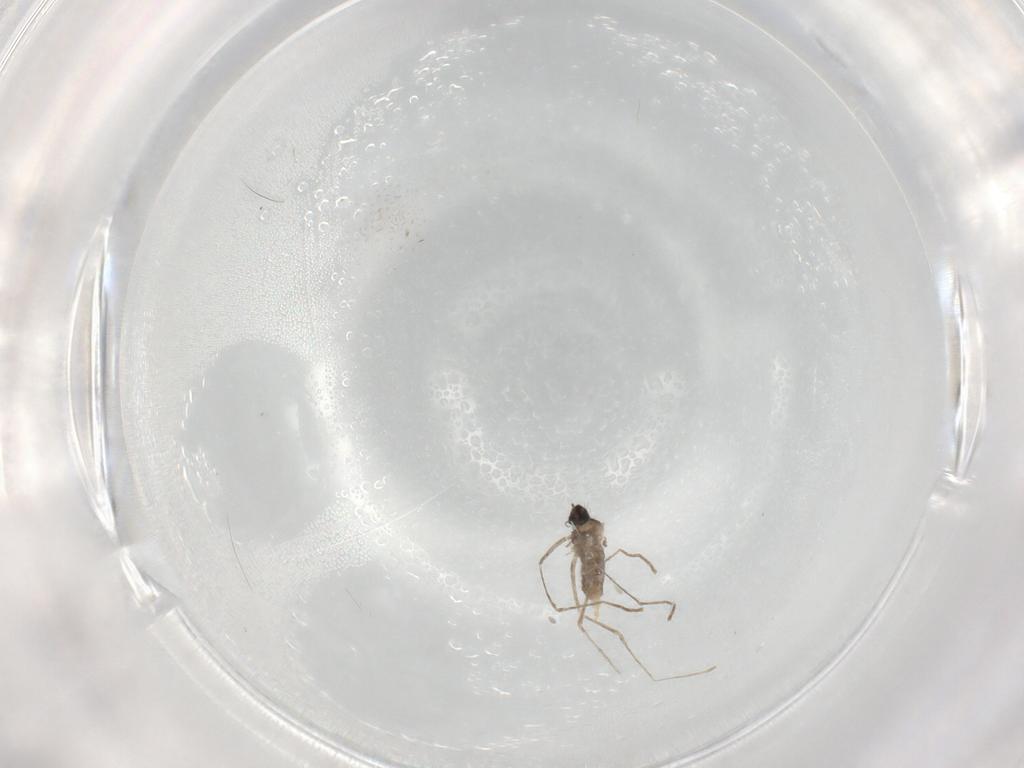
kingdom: Animalia
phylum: Arthropoda
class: Insecta
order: Diptera
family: Cecidomyiidae
